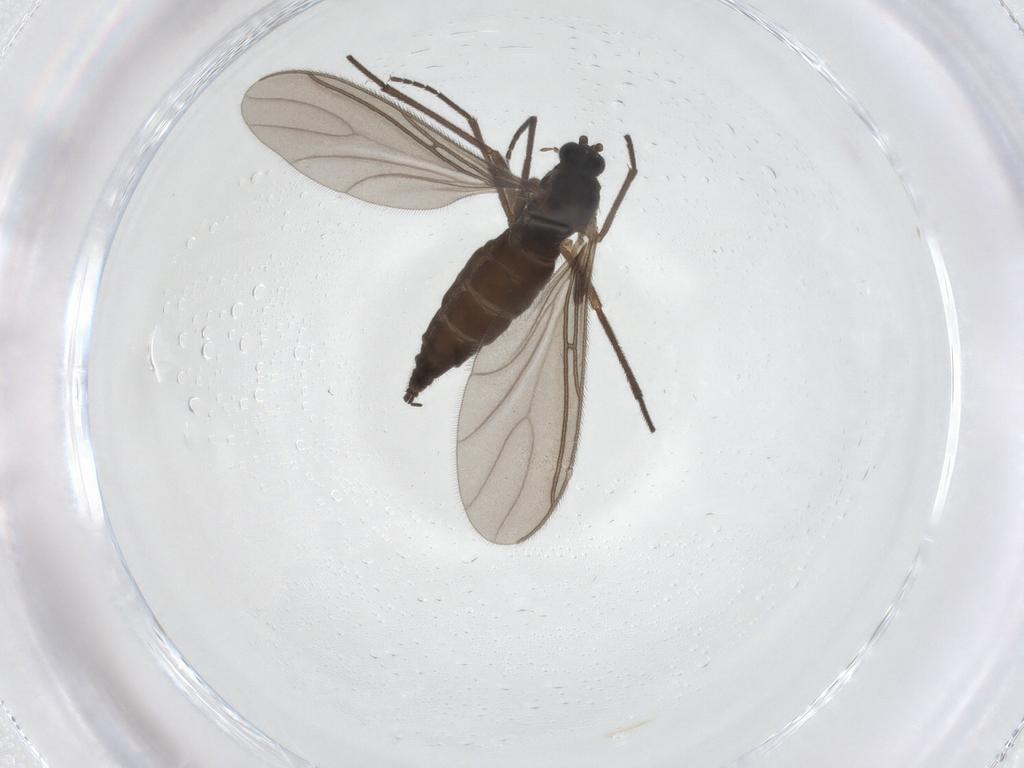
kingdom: Animalia
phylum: Arthropoda
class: Insecta
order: Diptera
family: Sciaridae
